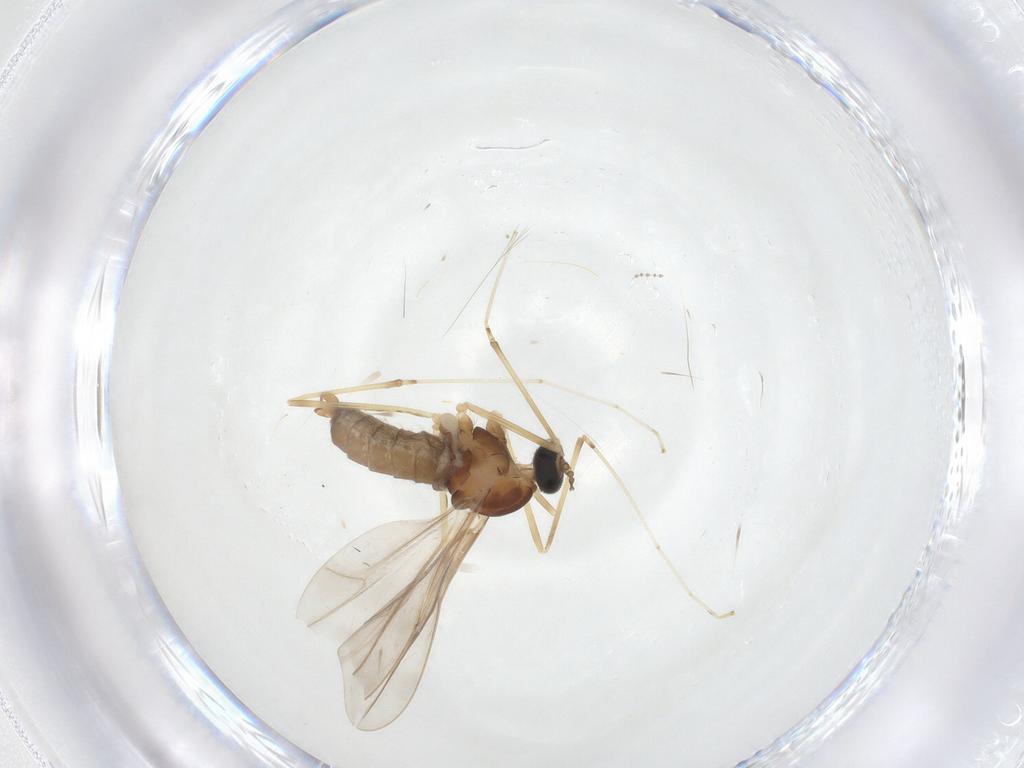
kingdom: Animalia
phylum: Arthropoda
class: Insecta
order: Diptera
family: Cecidomyiidae
